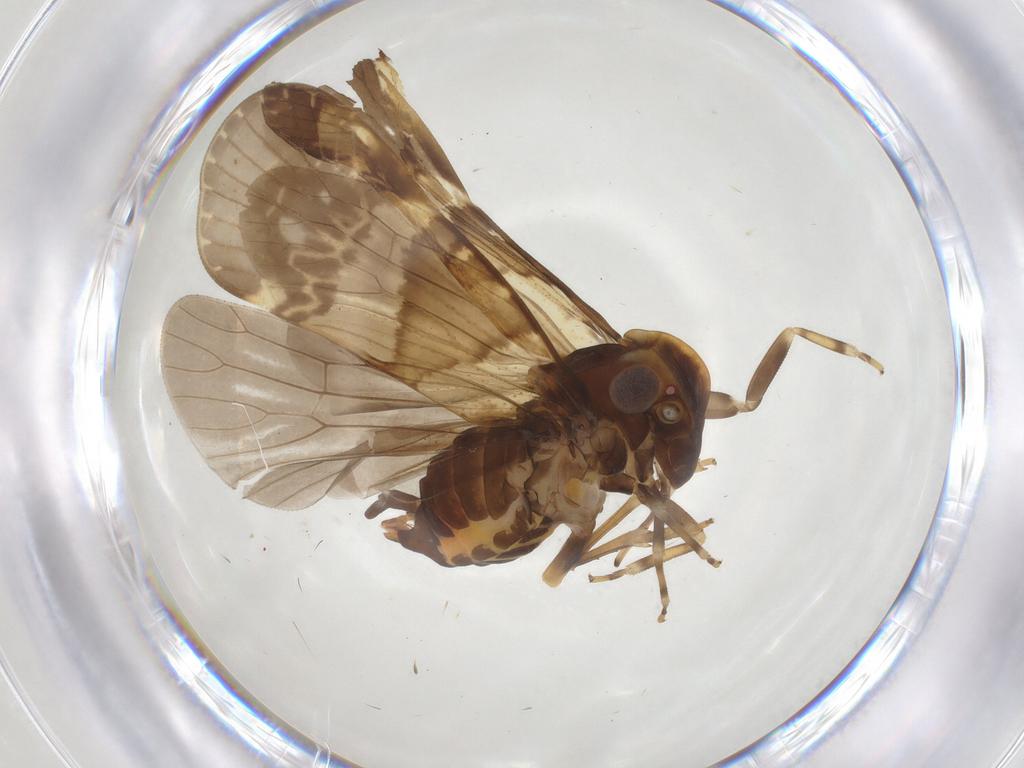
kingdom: Animalia
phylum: Arthropoda
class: Insecta
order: Hemiptera
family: Cixiidae
